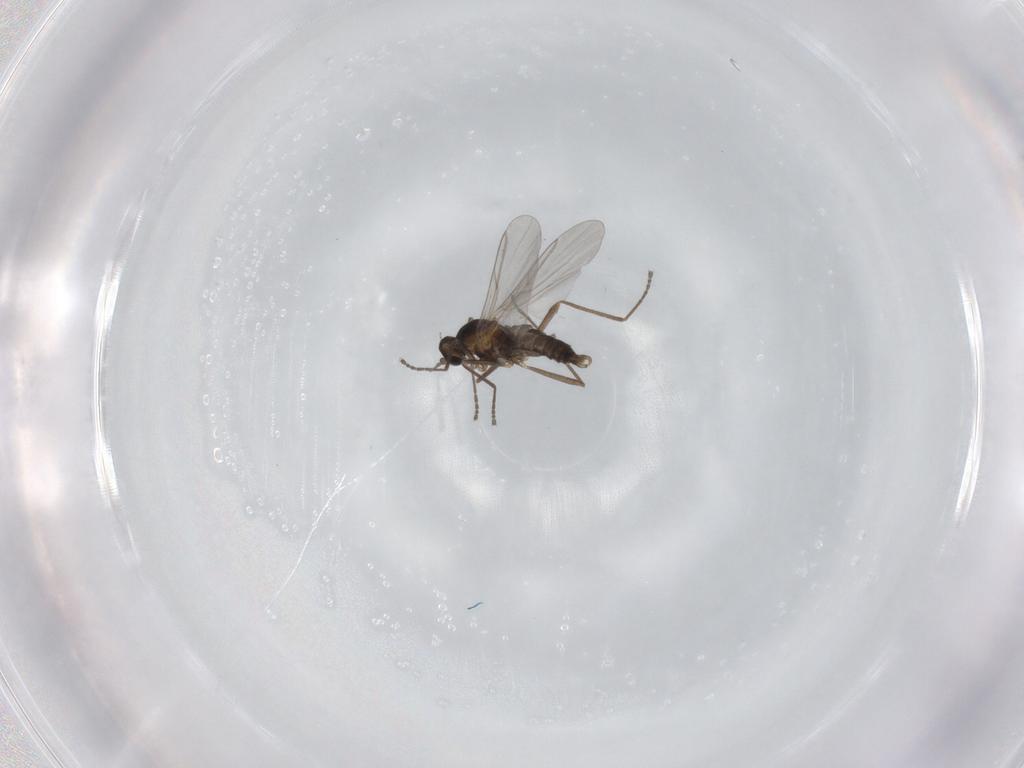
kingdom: Animalia
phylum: Arthropoda
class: Insecta
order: Diptera
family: Cecidomyiidae
